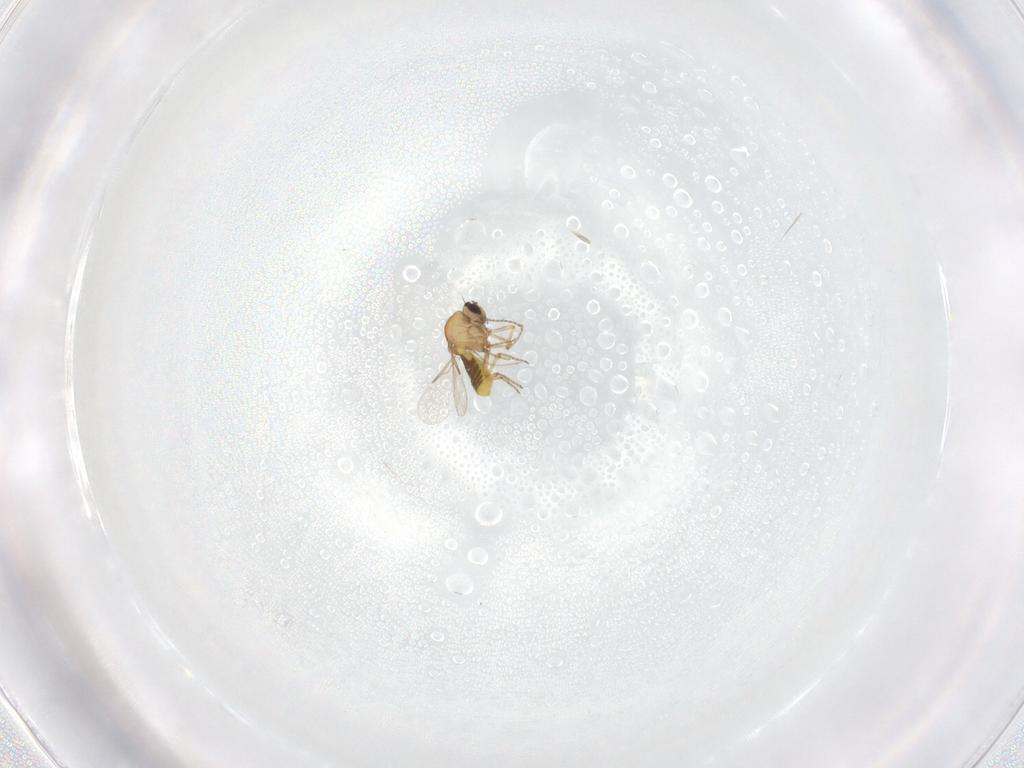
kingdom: Animalia
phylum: Arthropoda
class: Insecta
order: Diptera
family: Ceratopogonidae
